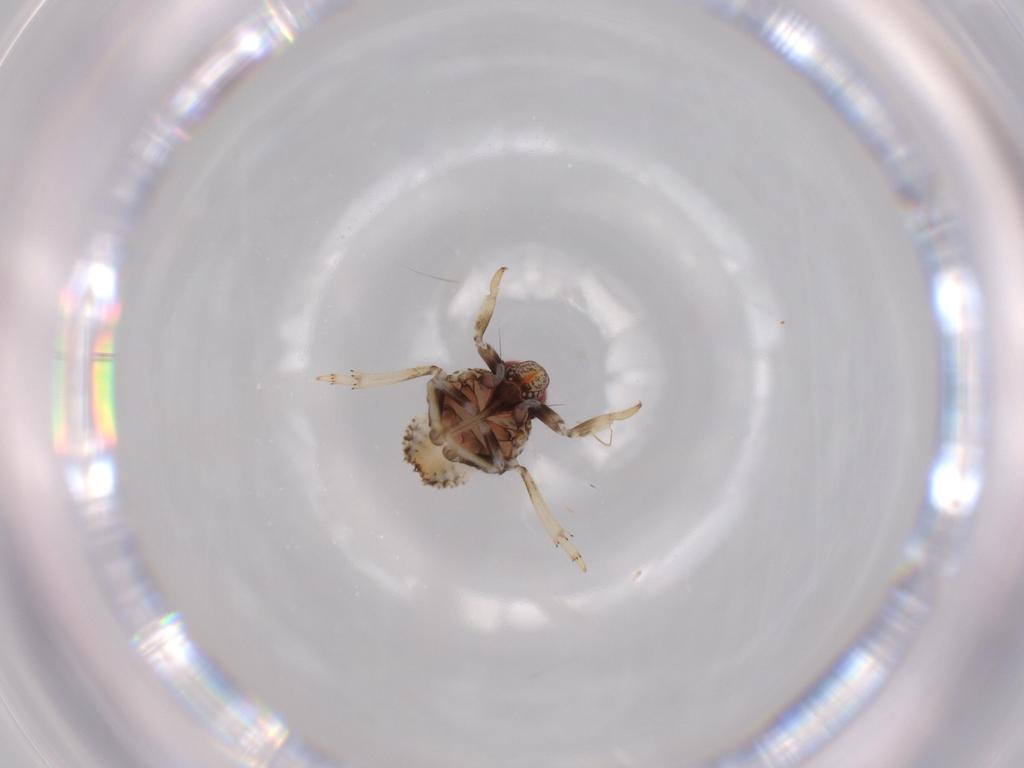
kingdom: Animalia
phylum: Arthropoda
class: Insecta
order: Hemiptera
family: Issidae
